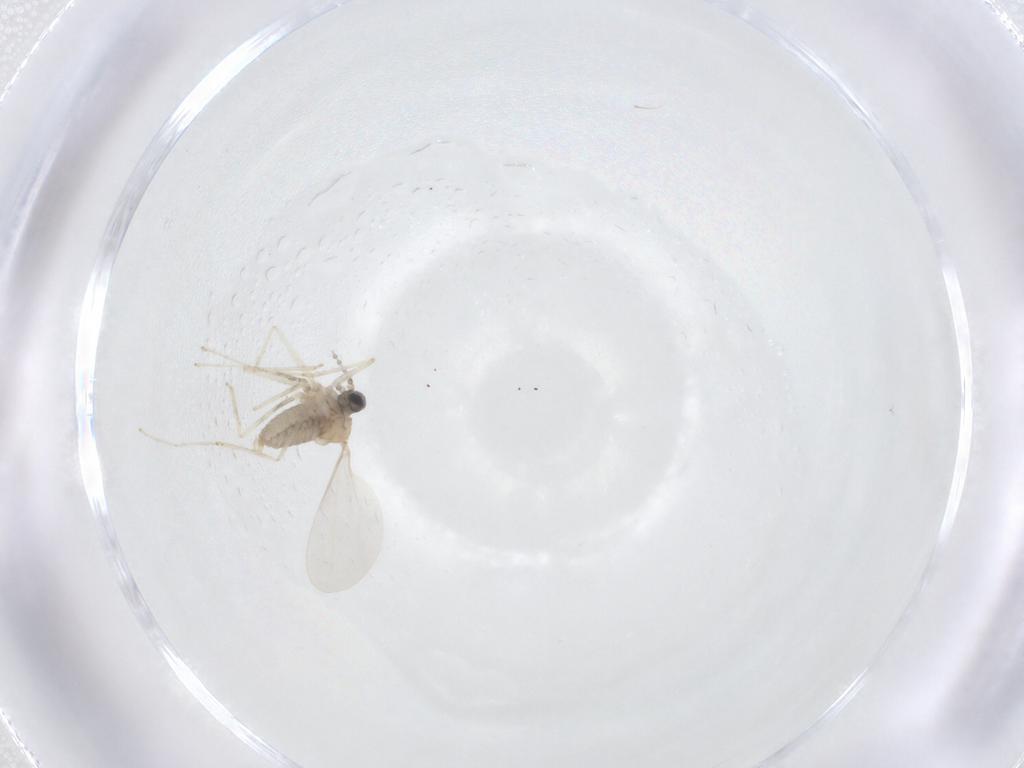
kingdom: Animalia
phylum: Arthropoda
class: Insecta
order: Diptera
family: Cecidomyiidae
